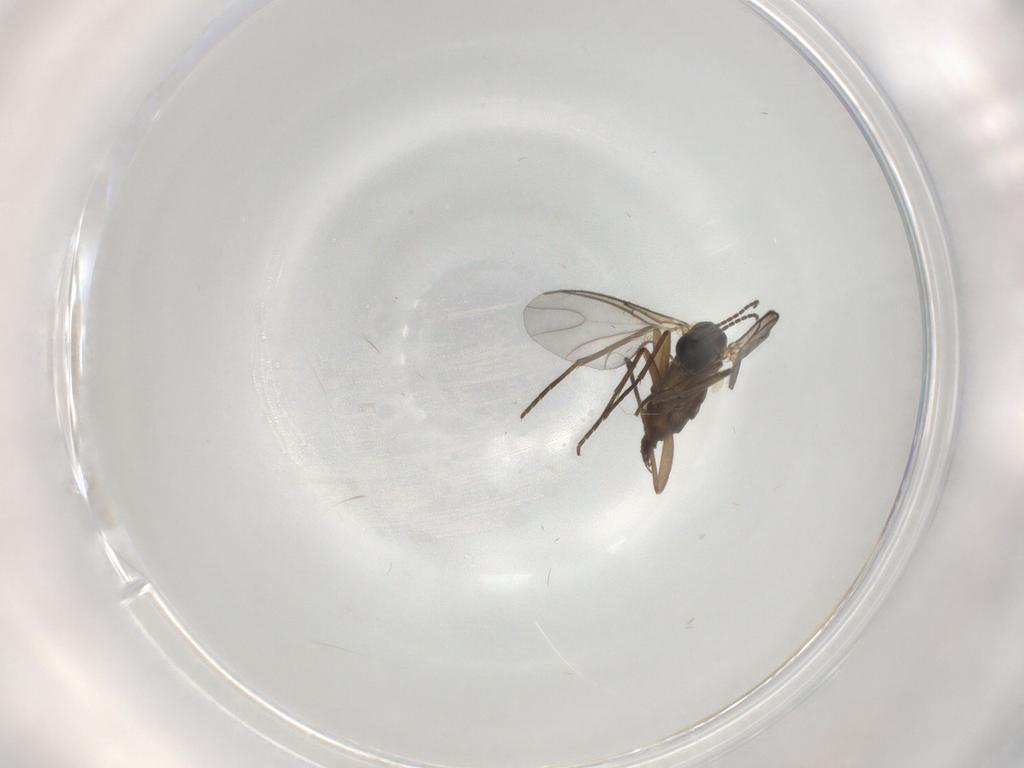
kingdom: Animalia
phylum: Arthropoda
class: Insecta
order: Diptera
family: Sciaridae
